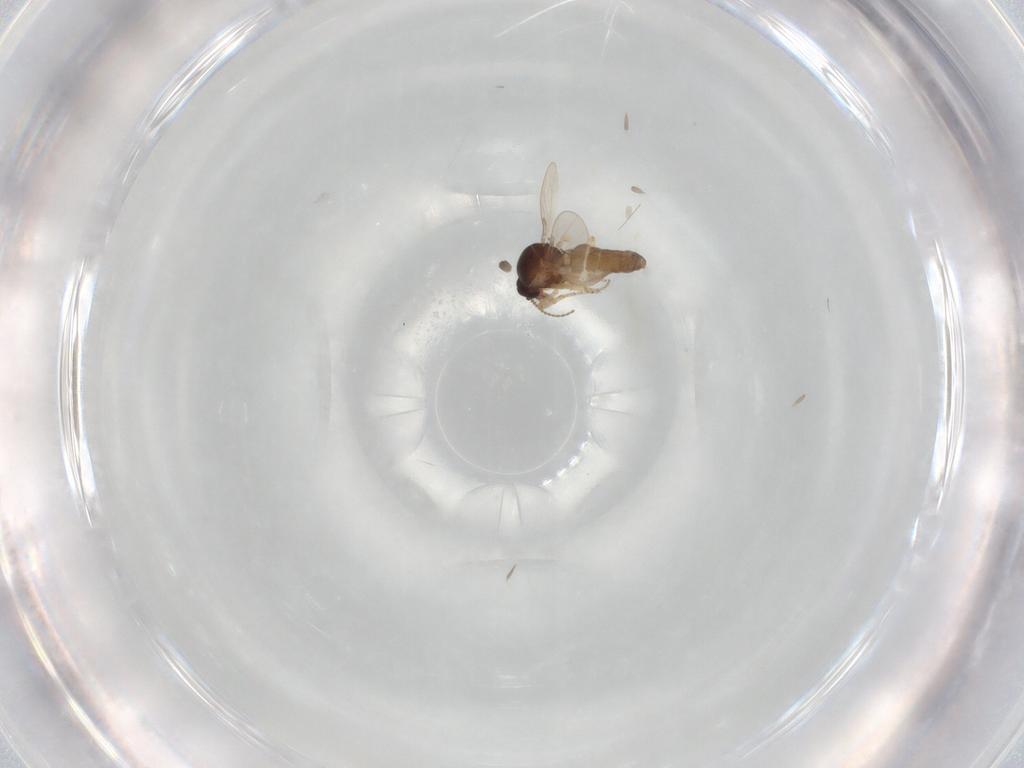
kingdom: Animalia
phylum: Arthropoda
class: Insecta
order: Diptera
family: Ceratopogonidae
